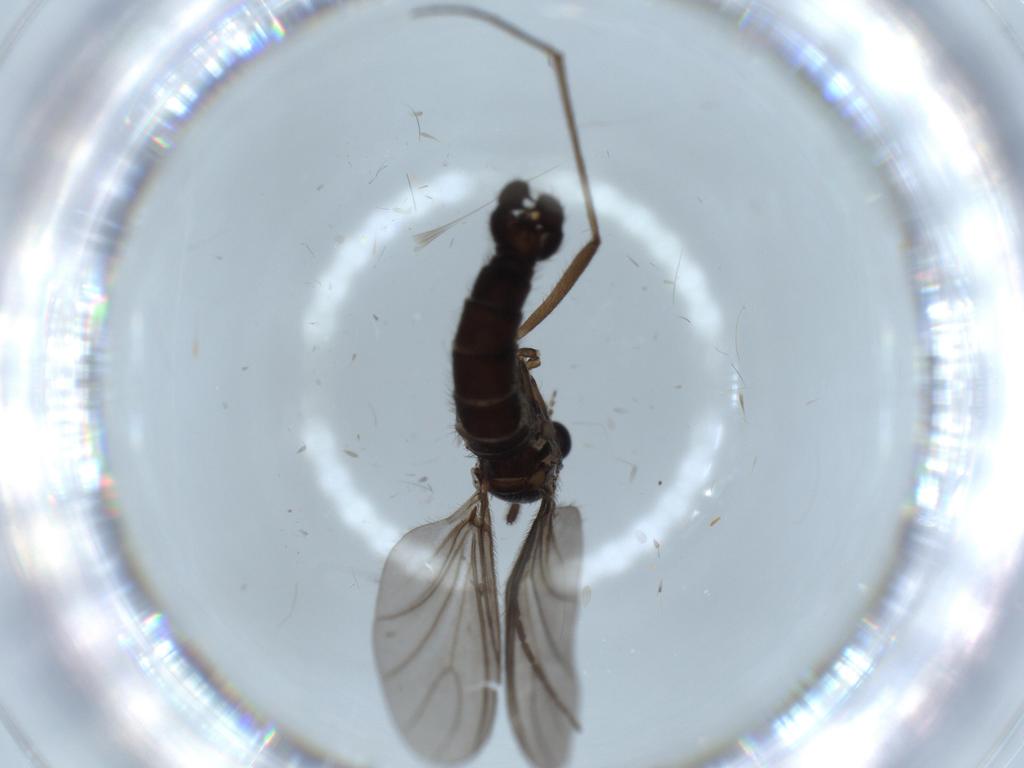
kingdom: Animalia
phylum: Arthropoda
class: Insecta
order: Diptera
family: Sciaridae
